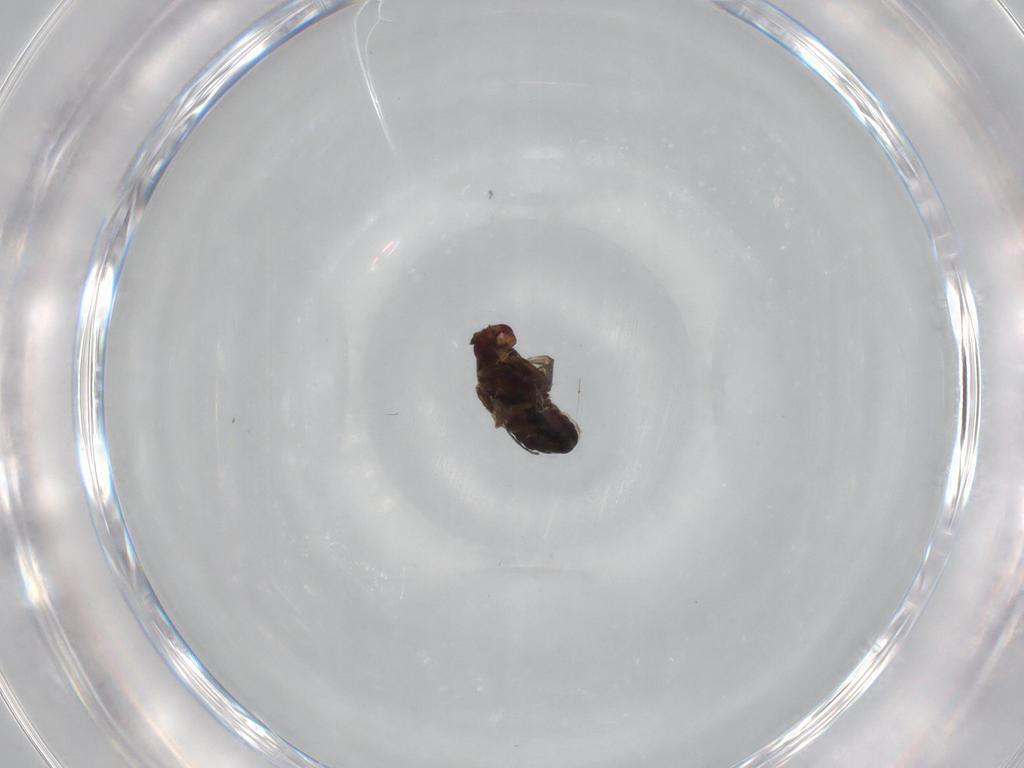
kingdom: Animalia
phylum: Arthropoda
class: Insecta
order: Diptera
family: Cecidomyiidae
